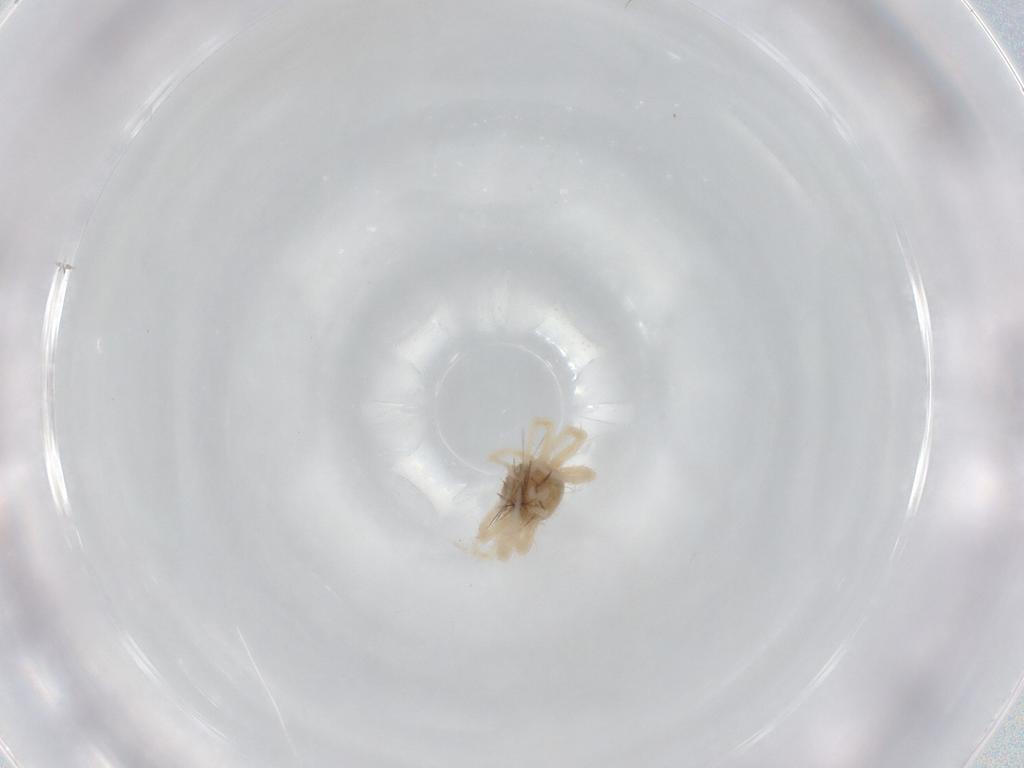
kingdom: Animalia
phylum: Arthropoda
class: Arachnida
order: Trombidiformes
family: Anystidae
